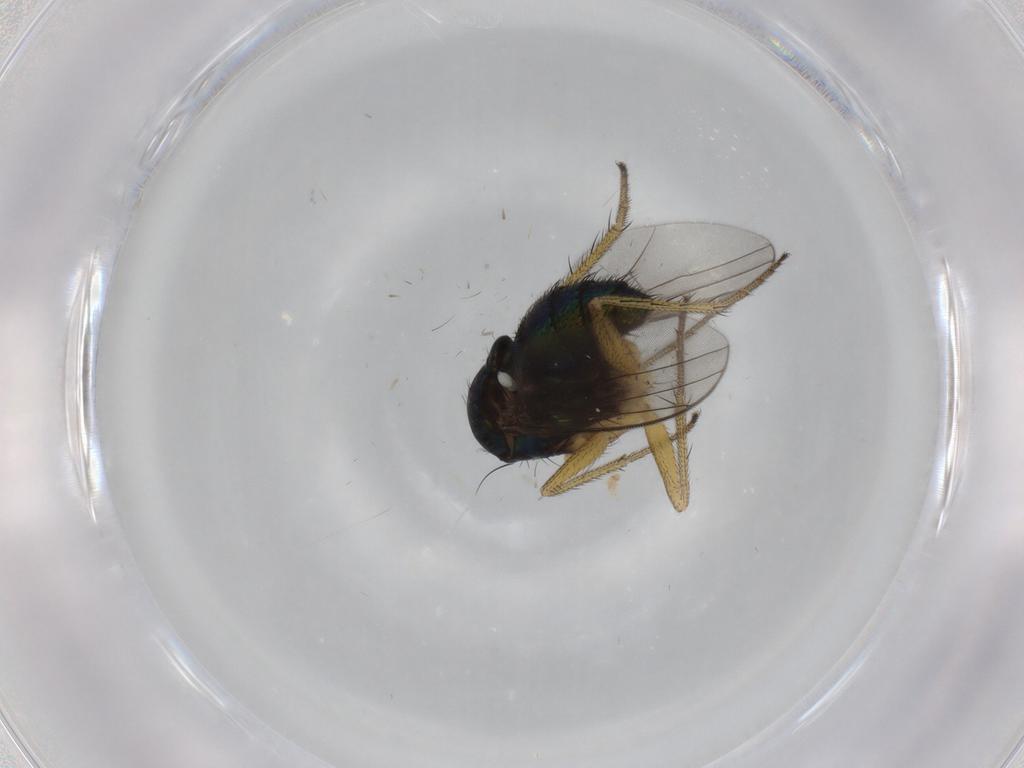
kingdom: Animalia
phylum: Arthropoda
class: Insecta
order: Diptera
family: Dolichopodidae
